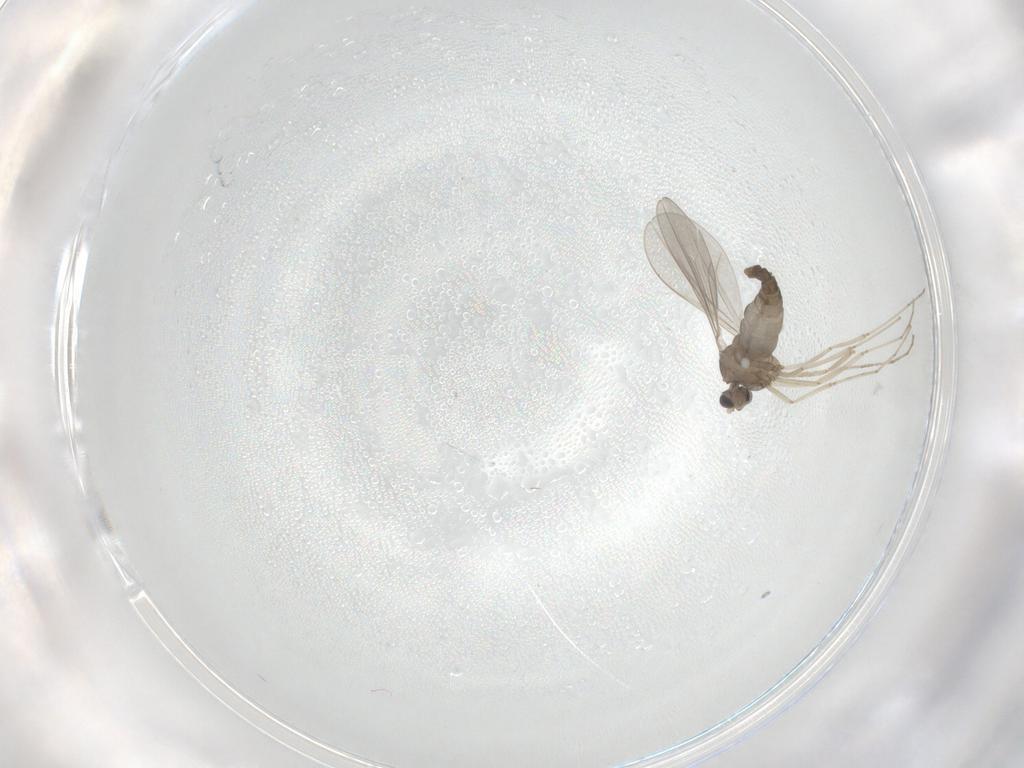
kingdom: Animalia
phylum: Arthropoda
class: Insecta
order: Diptera
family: Cecidomyiidae
